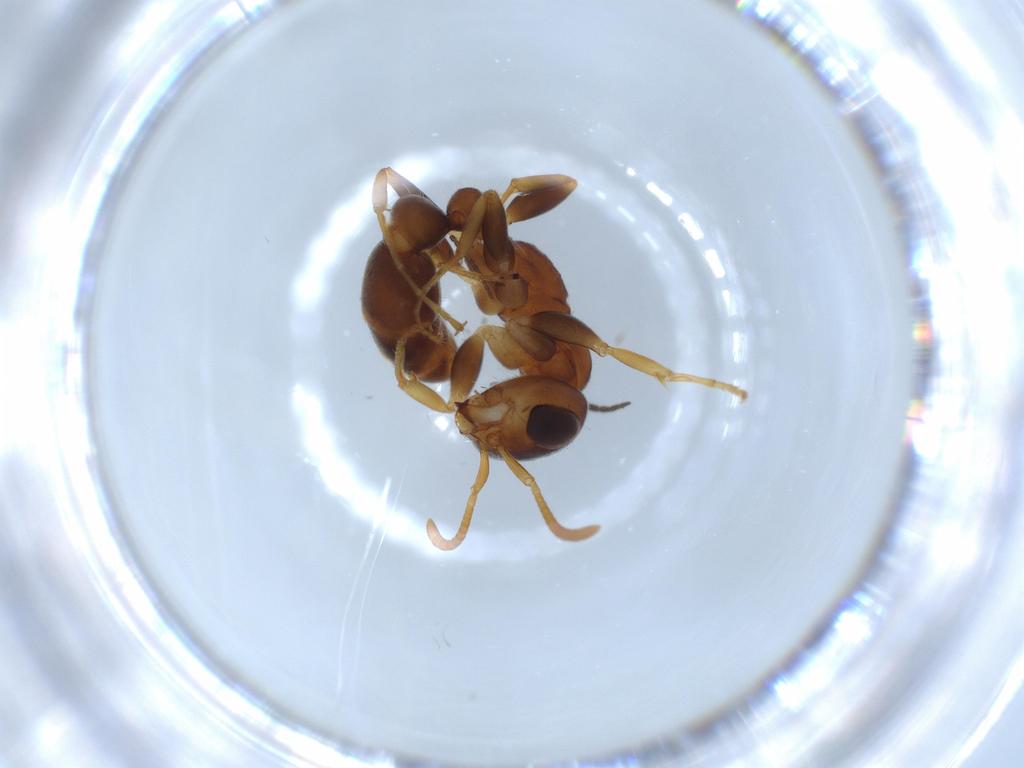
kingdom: Animalia
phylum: Arthropoda
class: Insecta
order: Hymenoptera
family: Formicidae
